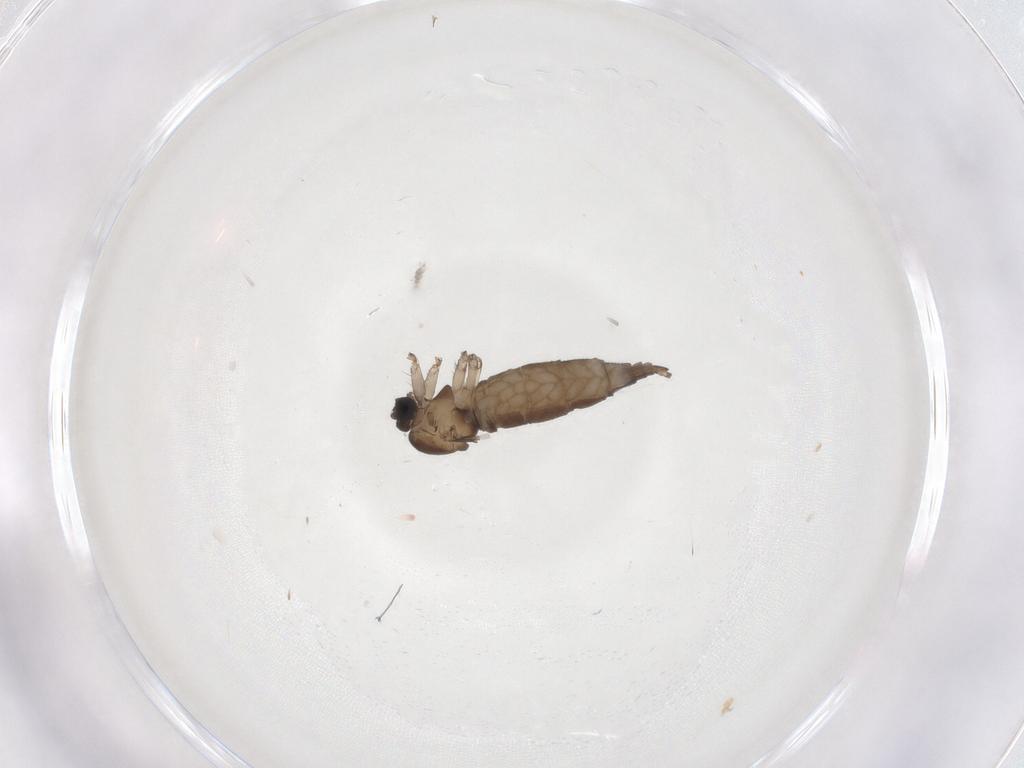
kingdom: Animalia
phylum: Arthropoda
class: Insecta
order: Diptera
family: Sciaridae
